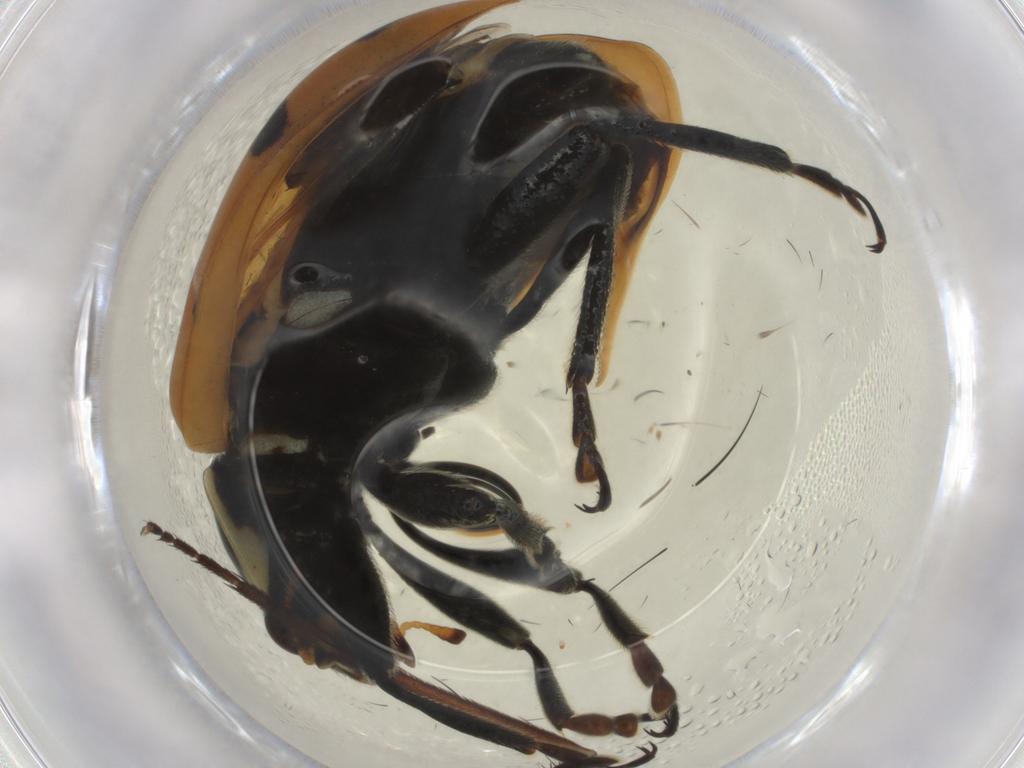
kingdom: Animalia
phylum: Arthropoda
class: Insecta
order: Coleoptera
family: Coccinellidae
